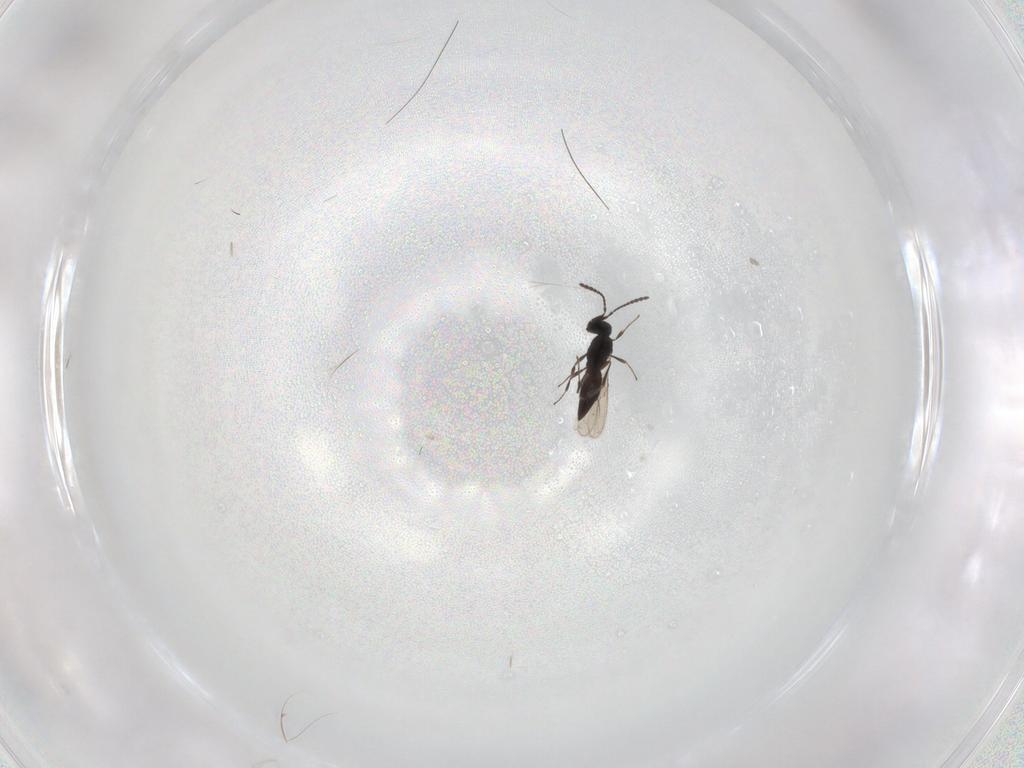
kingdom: Animalia
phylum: Arthropoda
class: Insecta
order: Hymenoptera
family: Scelionidae
